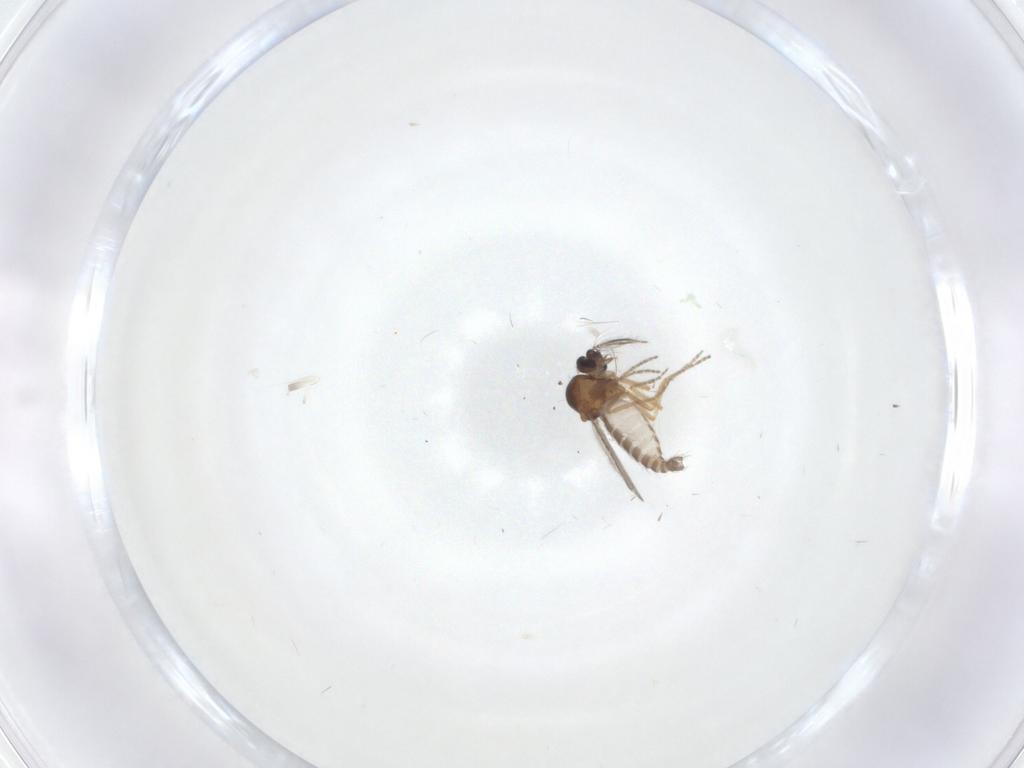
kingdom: Animalia
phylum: Arthropoda
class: Insecta
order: Diptera
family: Ceratopogonidae
